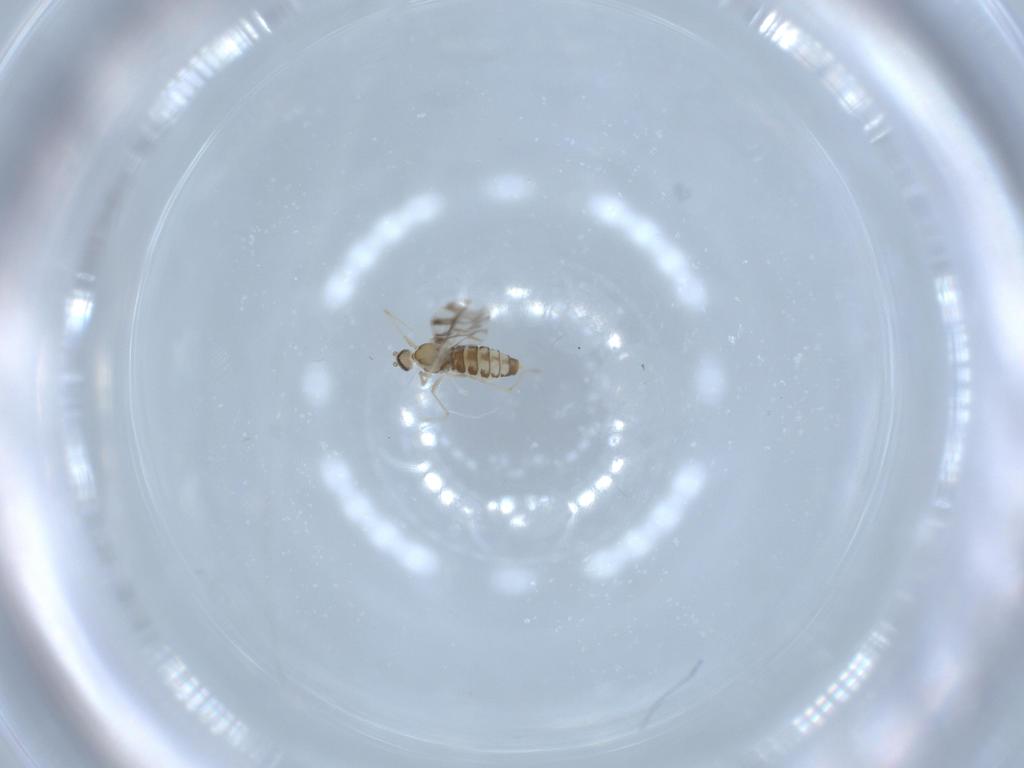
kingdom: Animalia
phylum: Arthropoda
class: Insecta
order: Diptera
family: Cecidomyiidae
